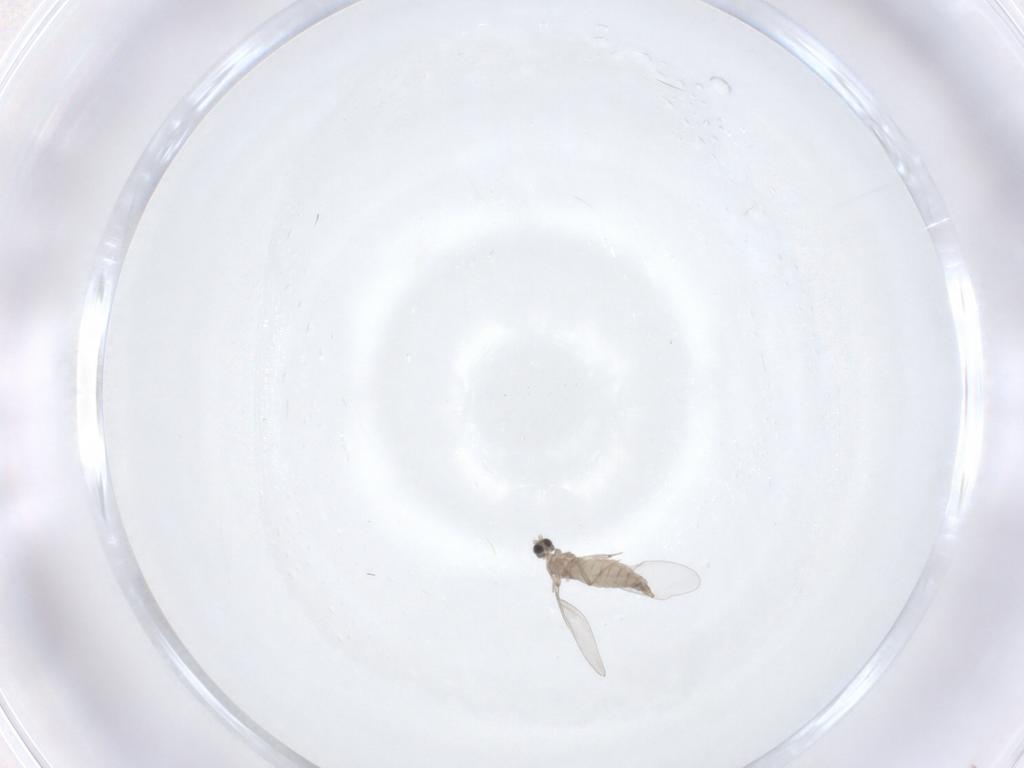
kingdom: Animalia
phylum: Arthropoda
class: Insecta
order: Diptera
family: Cecidomyiidae
